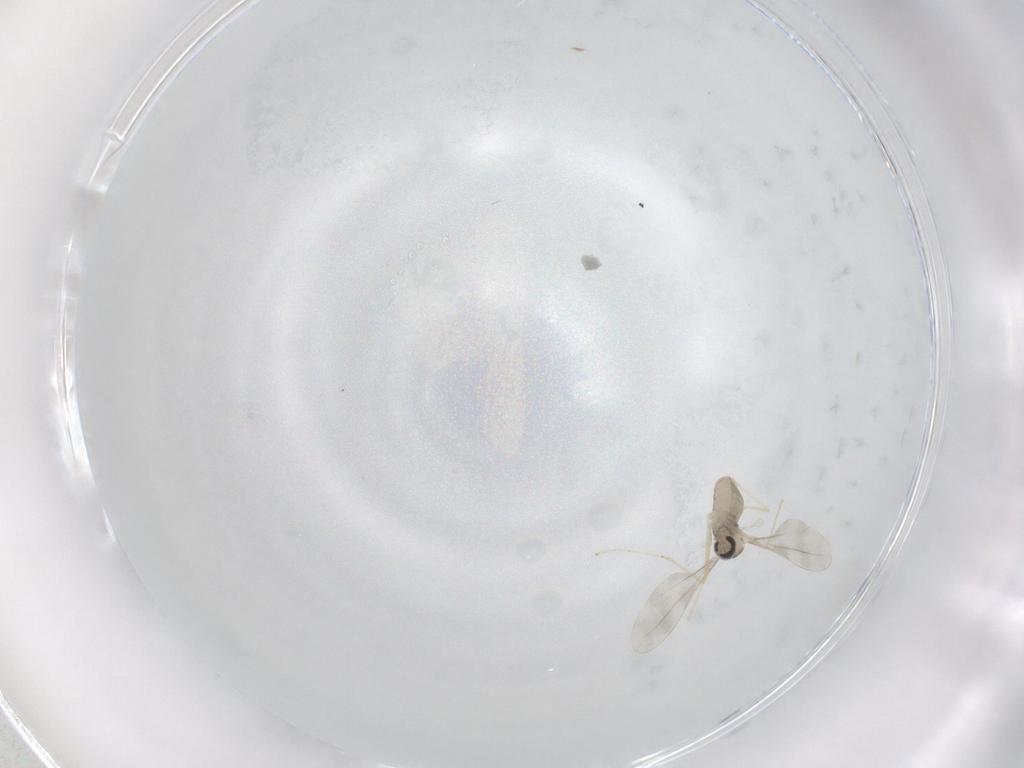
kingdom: Animalia
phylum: Arthropoda
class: Insecta
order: Diptera
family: Cecidomyiidae
